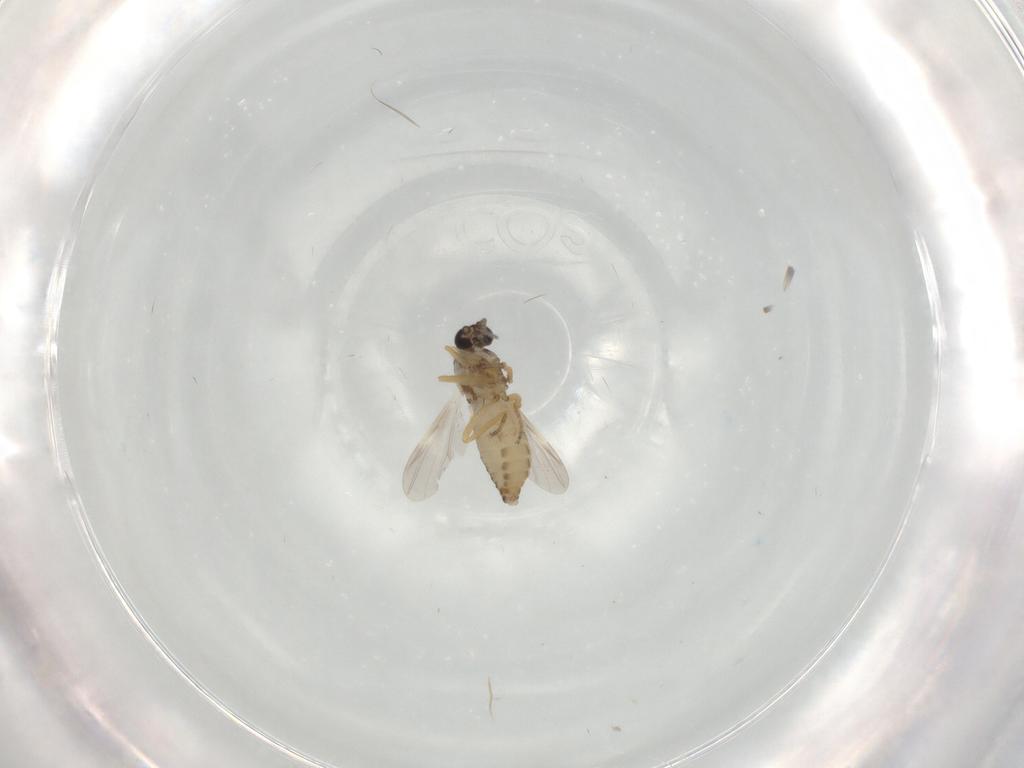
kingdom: Animalia
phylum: Arthropoda
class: Insecta
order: Diptera
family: Ceratopogonidae
